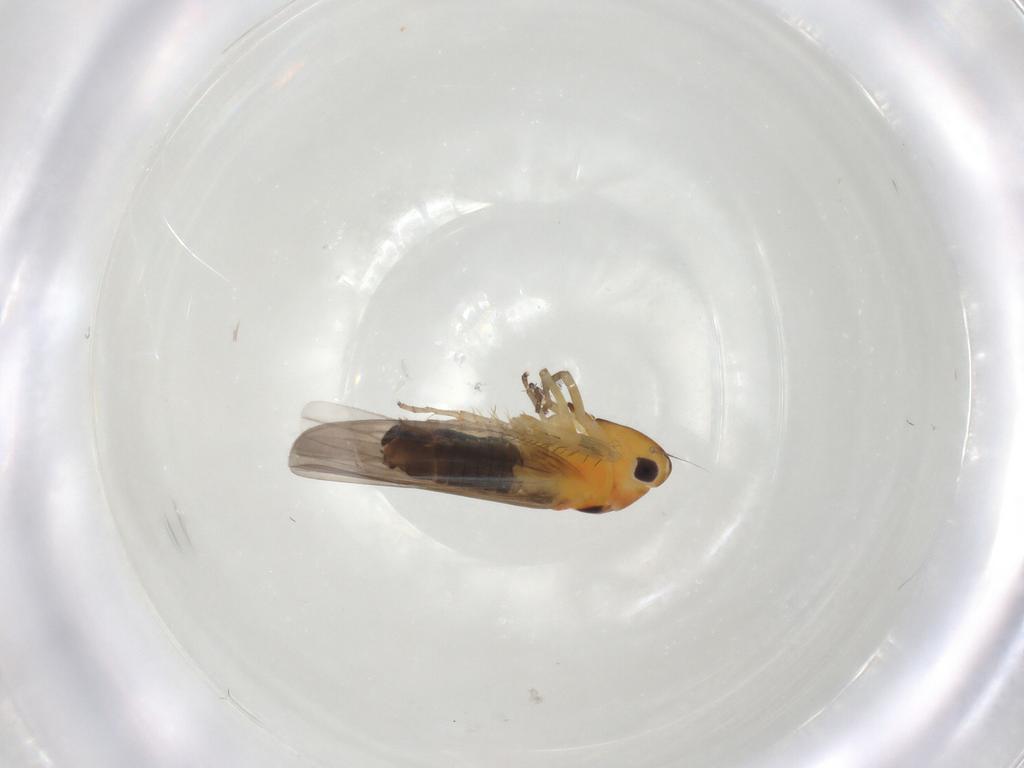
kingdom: Animalia
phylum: Arthropoda
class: Insecta
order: Hemiptera
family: Cicadellidae
